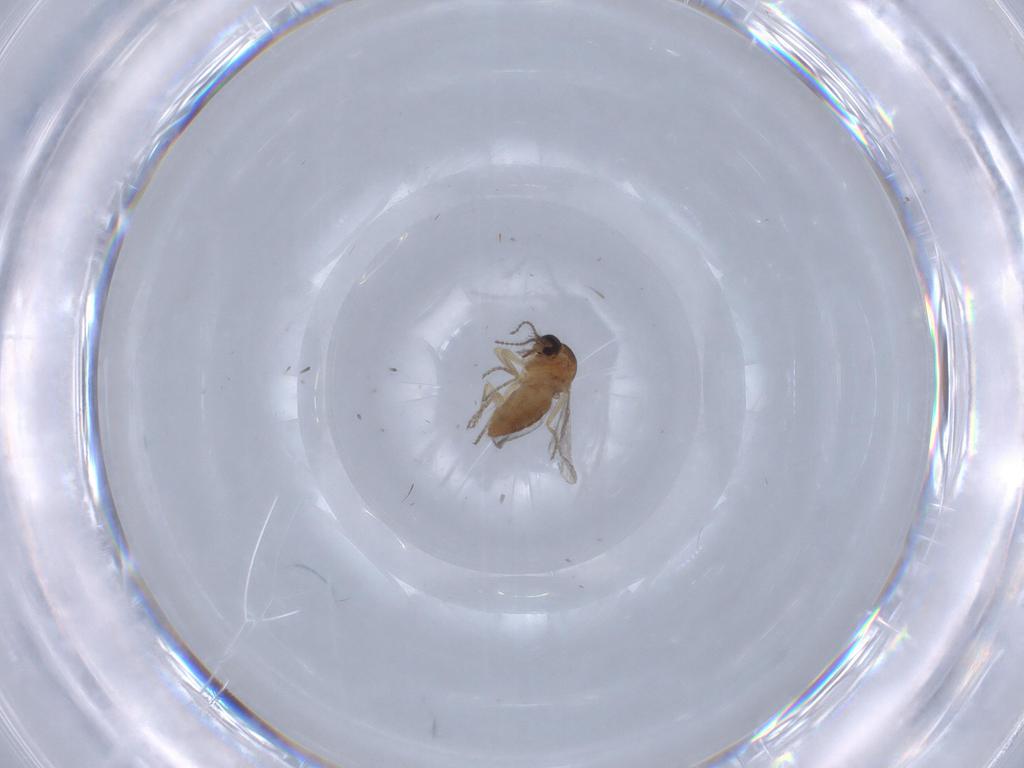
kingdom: Animalia
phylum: Arthropoda
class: Insecta
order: Diptera
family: Ceratopogonidae
